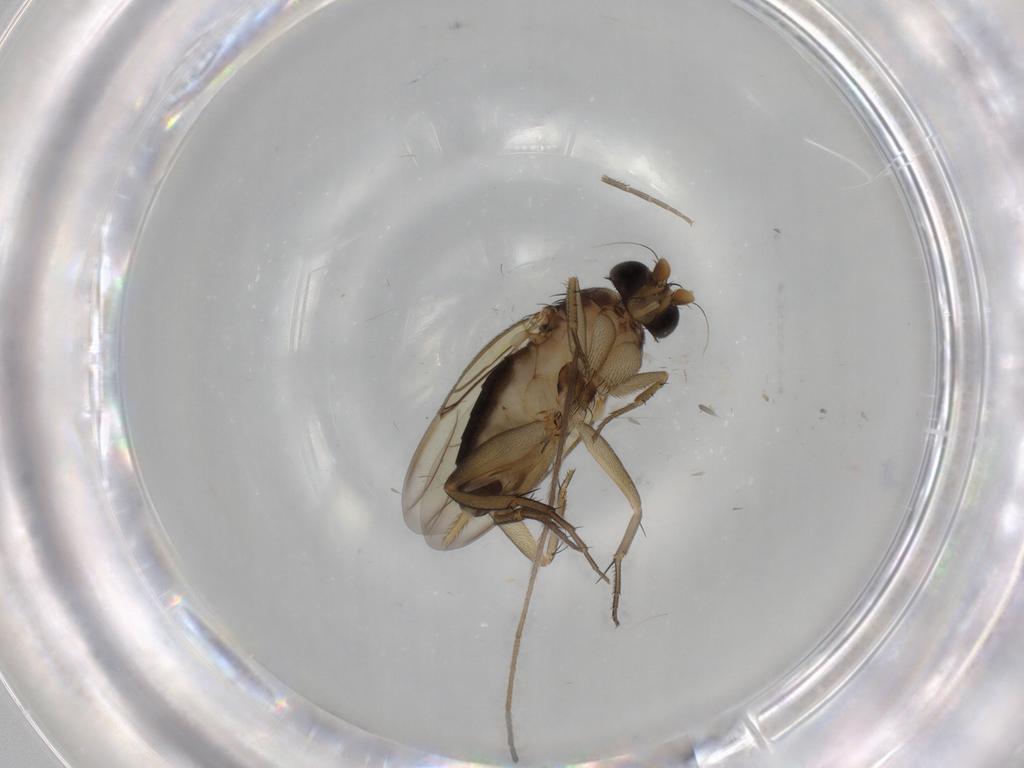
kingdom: Animalia
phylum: Arthropoda
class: Insecta
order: Diptera
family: Phoridae
